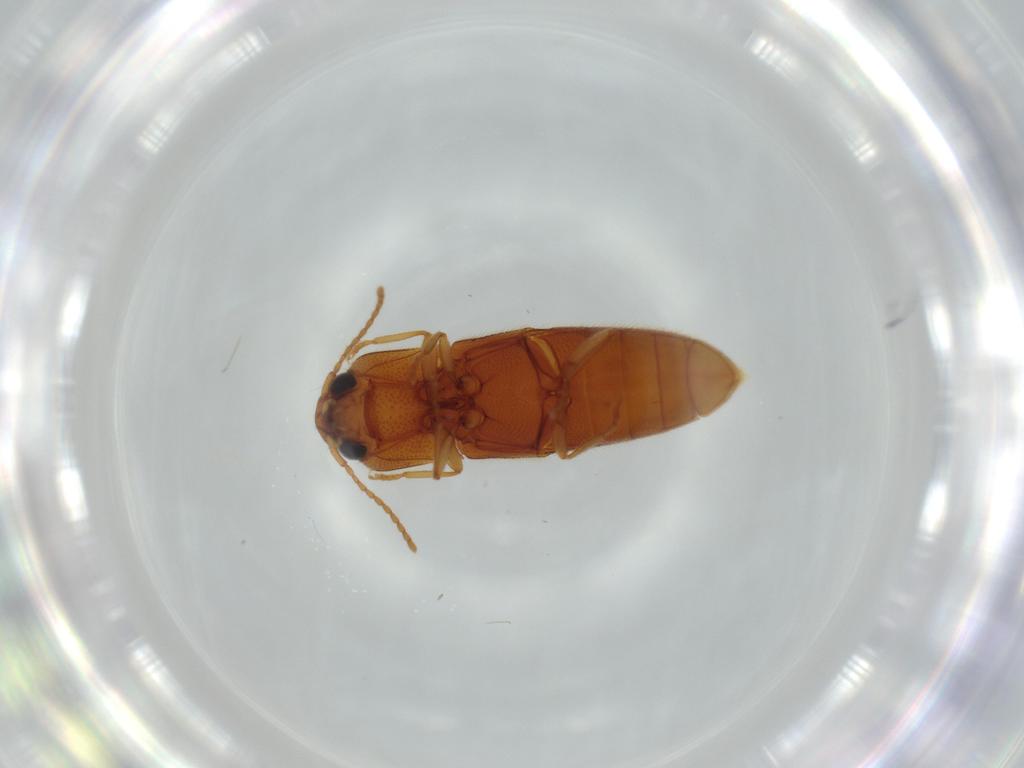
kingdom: Animalia
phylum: Arthropoda
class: Insecta
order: Coleoptera
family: Elateridae
